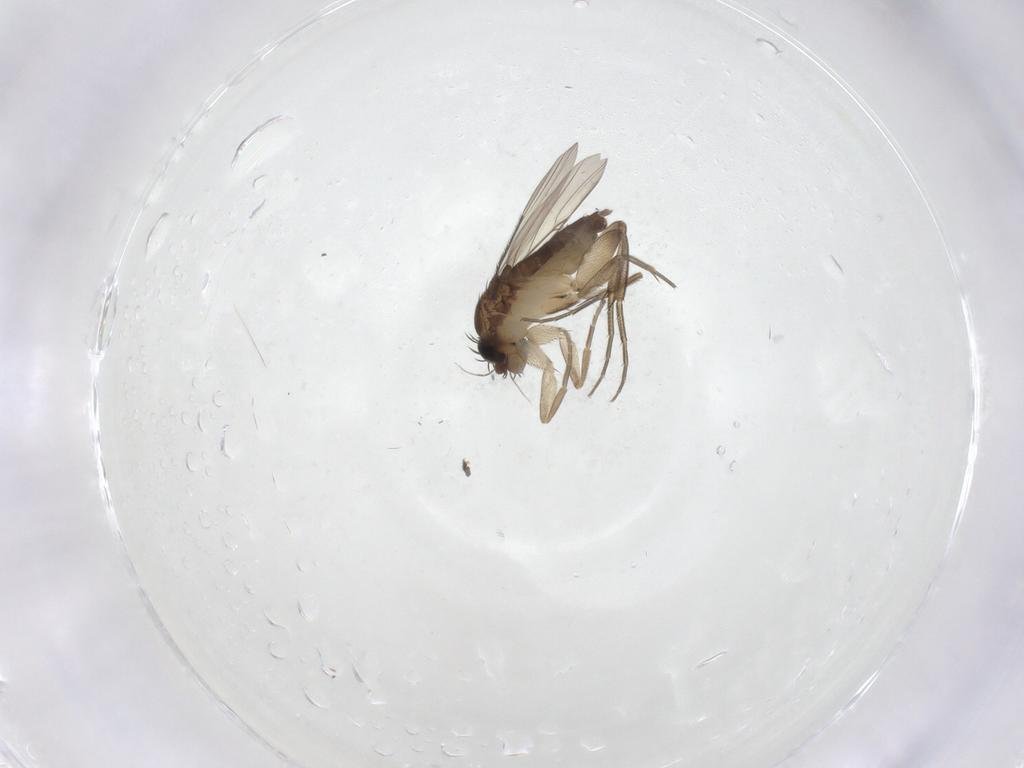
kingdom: Animalia
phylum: Arthropoda
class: Insecta
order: Diptera
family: Phoridae
